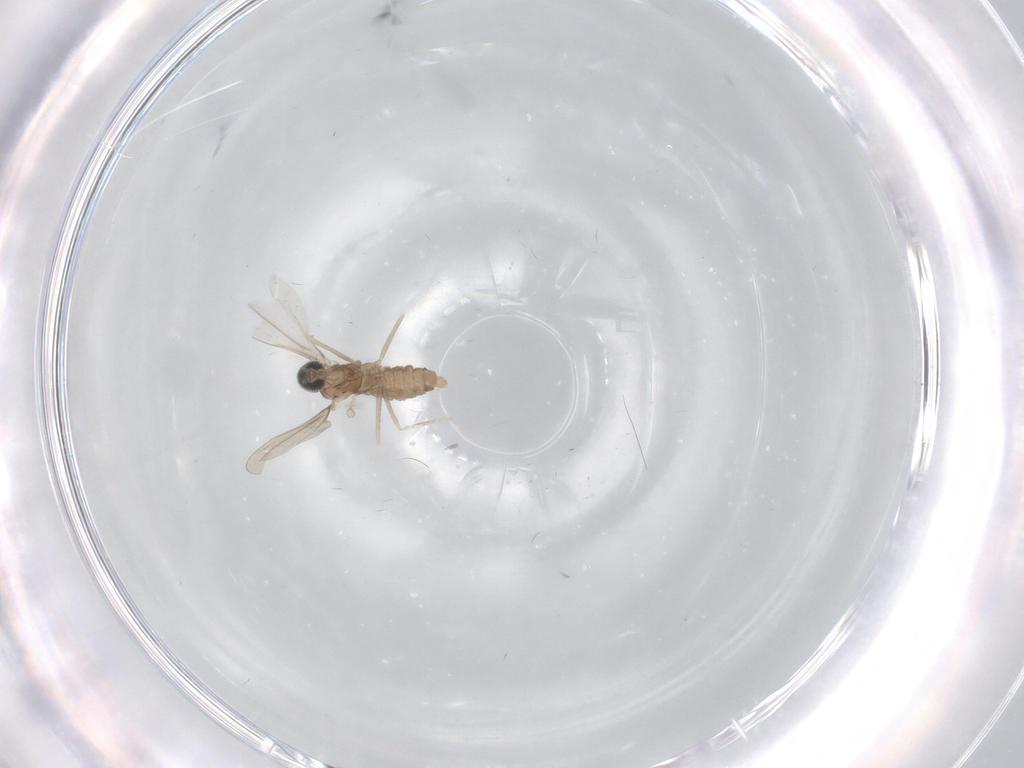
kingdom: Animalia
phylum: Arthropoda
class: Insecta
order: Diptera
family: Cecidomyiidae
